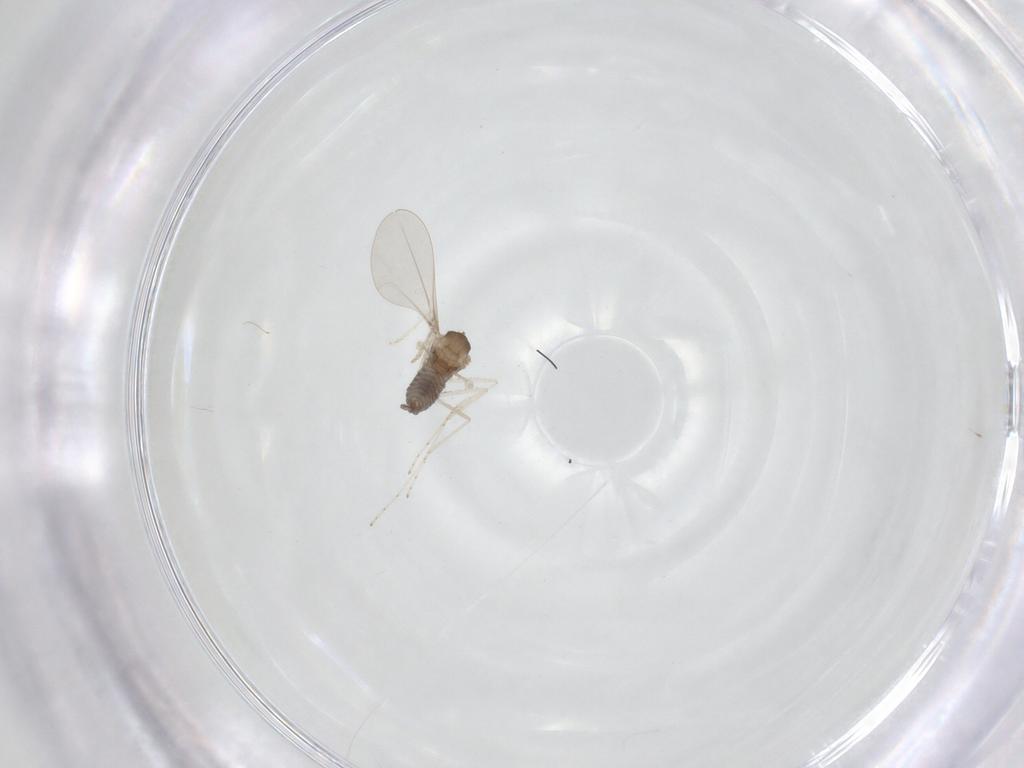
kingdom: Animalia
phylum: Arthropoda
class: Insecta
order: Diptera
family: Cecidomyiidae
